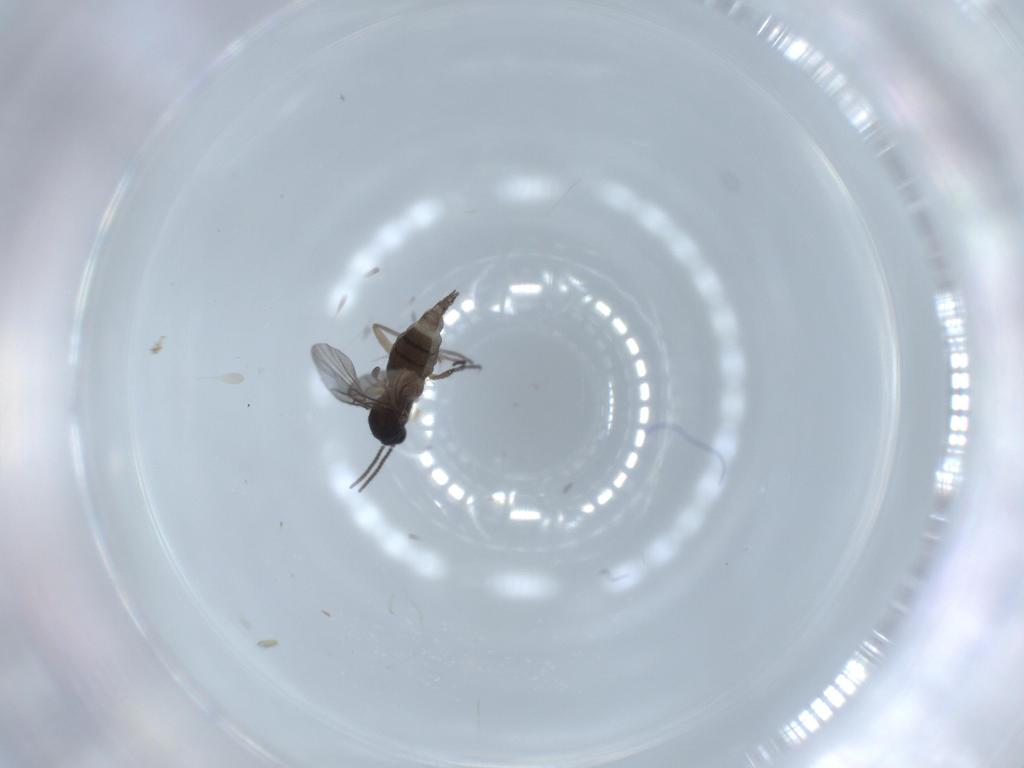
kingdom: Animalia
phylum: Arthropoda
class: Insecta
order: Diptera
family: Sciaridae
